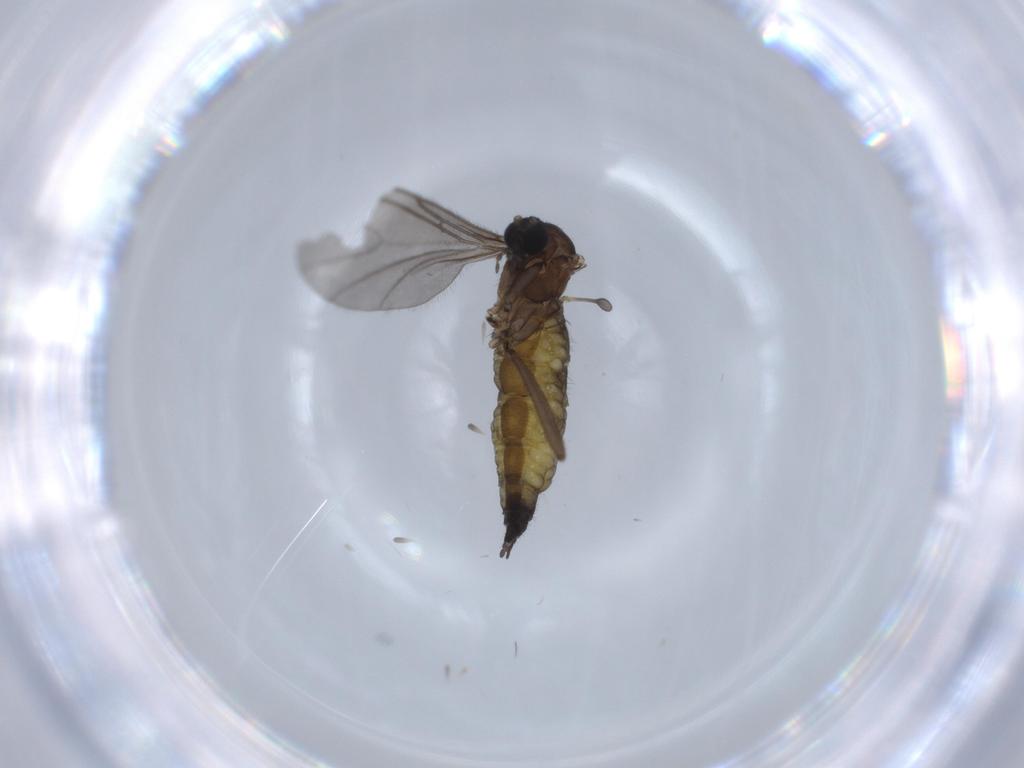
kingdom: Animalia
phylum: Arthropoda
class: Insecta
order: Diptera
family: Sciaridae
